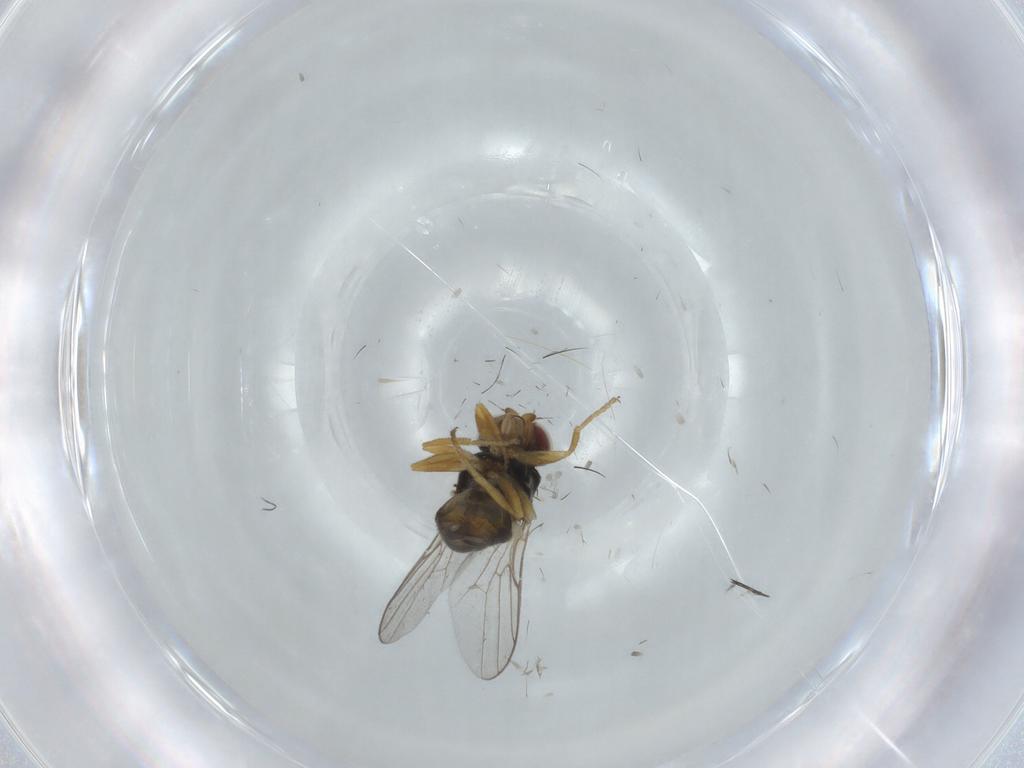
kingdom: Animalia
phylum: Arthropoda
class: Insecta
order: Diptera
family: Chloropidae
